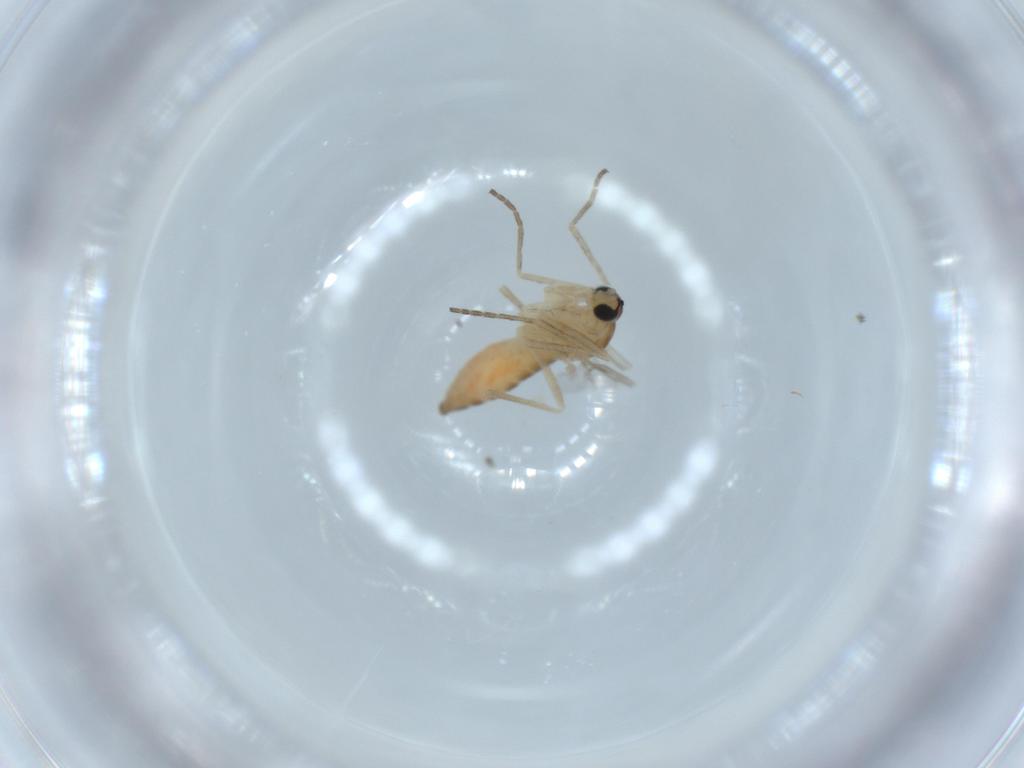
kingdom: Animalia
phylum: Arthropoda
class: Insecta
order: Diptera
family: Cecidomyiidae
